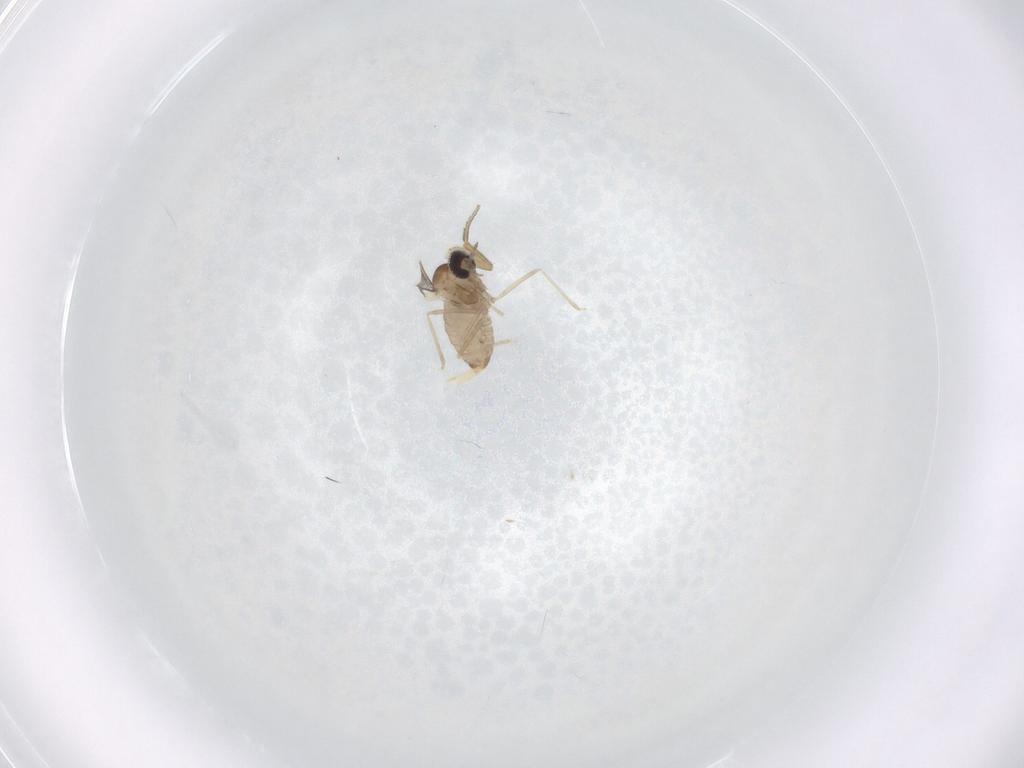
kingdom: Animalia
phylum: Arthropoda
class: Insecta
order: Diptera
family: Cecidomyiidae
